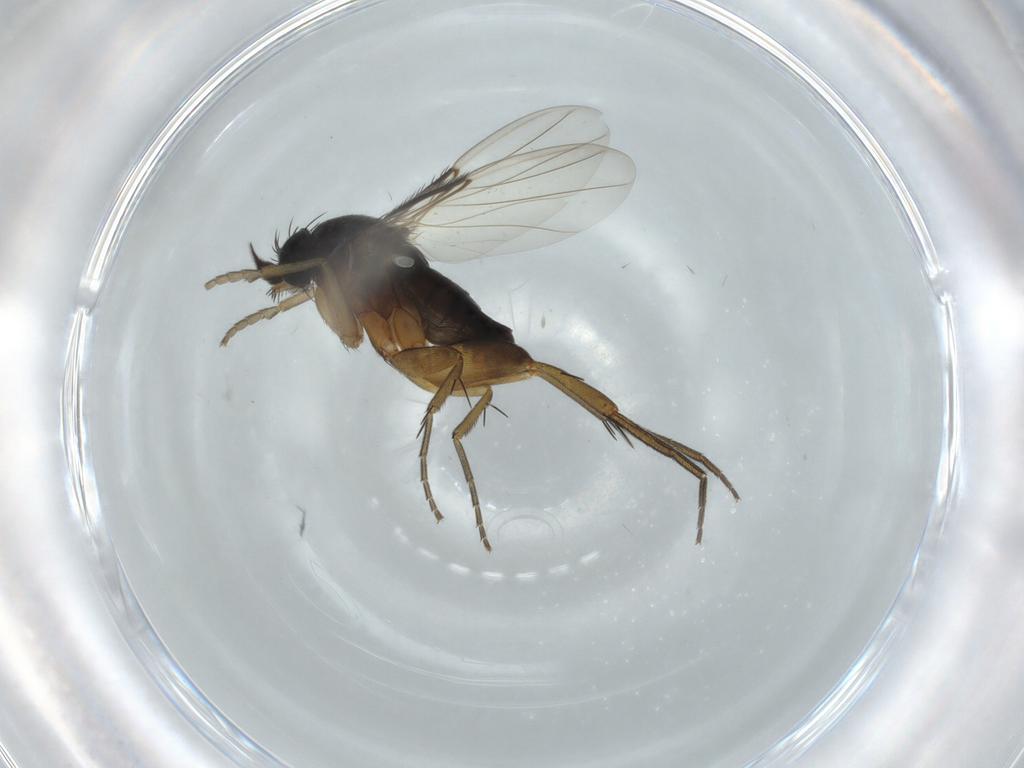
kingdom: Animalia
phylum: Arthropoda
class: Insecta
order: Diptera
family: Phoridae
